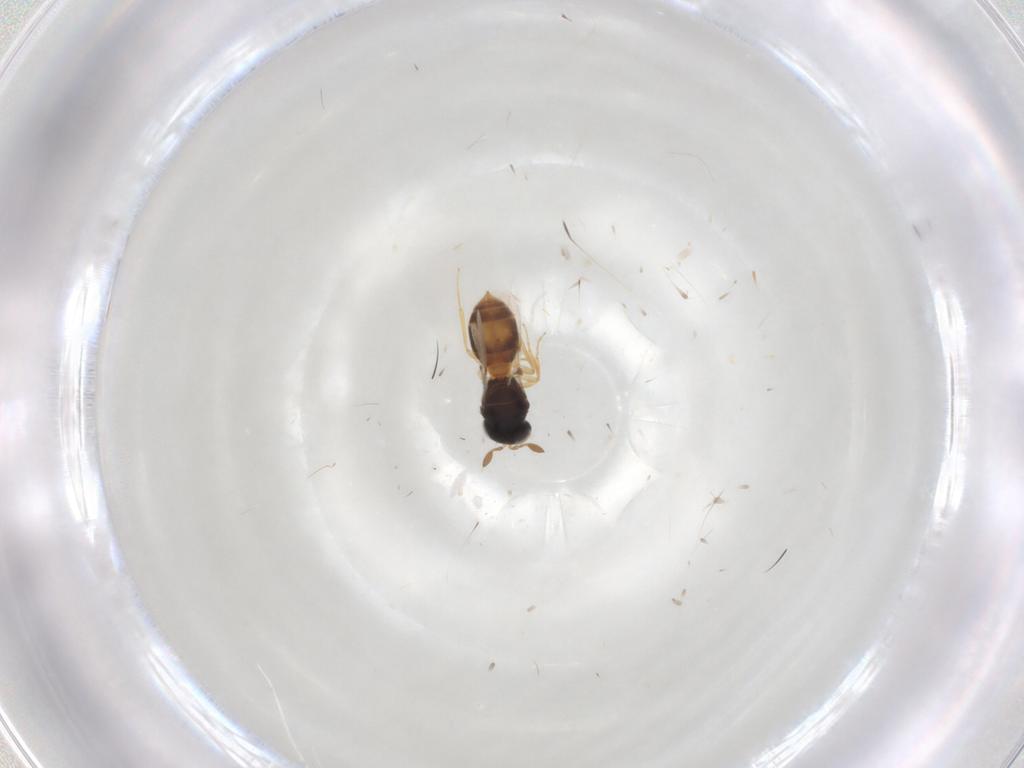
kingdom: Animalia
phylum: Arthropoda
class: Insecta
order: Hymenoptera
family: Scelionidae
